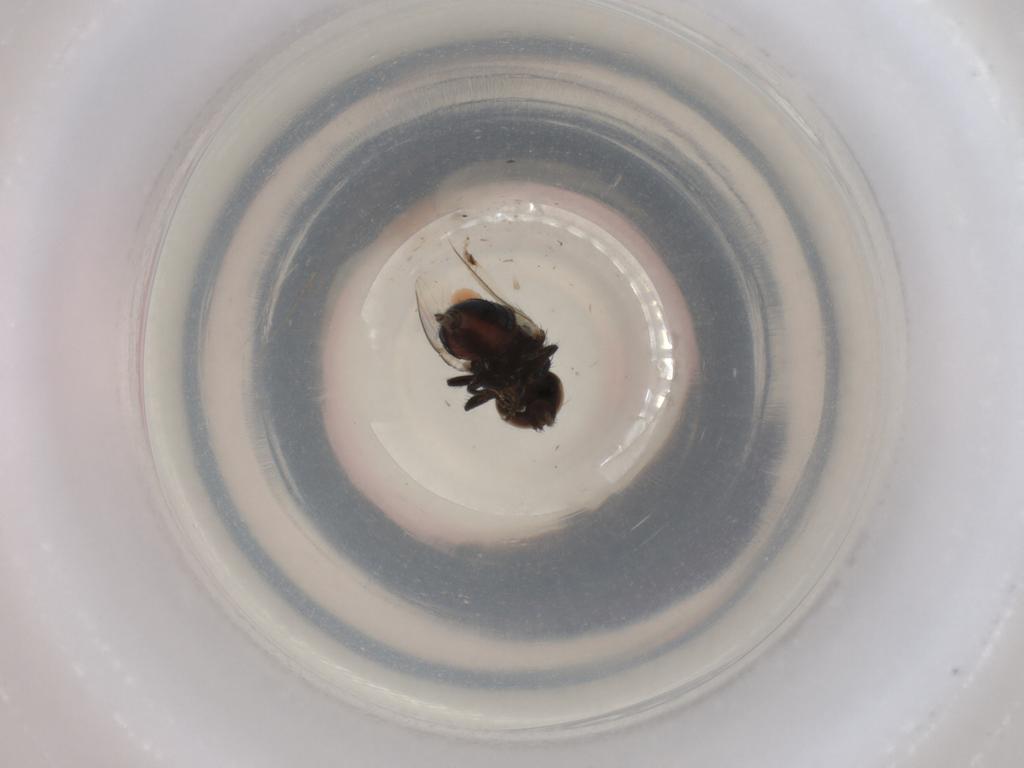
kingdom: Animalia
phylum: Arthropoda
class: Insecta
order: Diptera
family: Milichiidae
